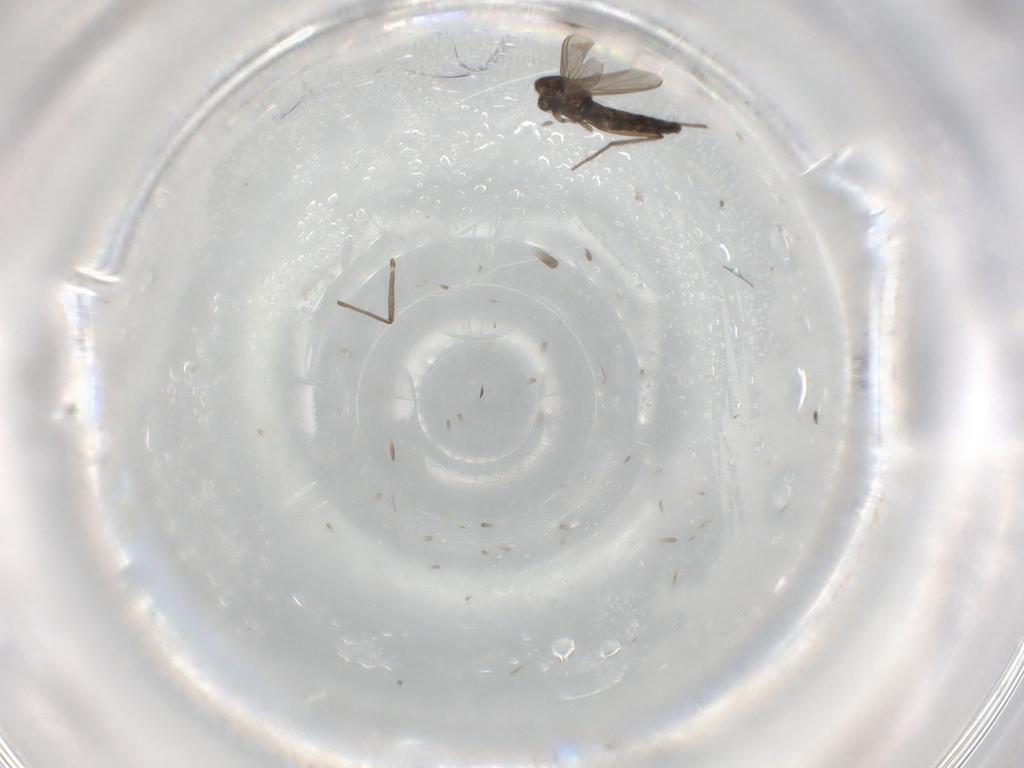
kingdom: Animalia
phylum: Arthropoda
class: Insecta
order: Diptera
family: Chironomidae
